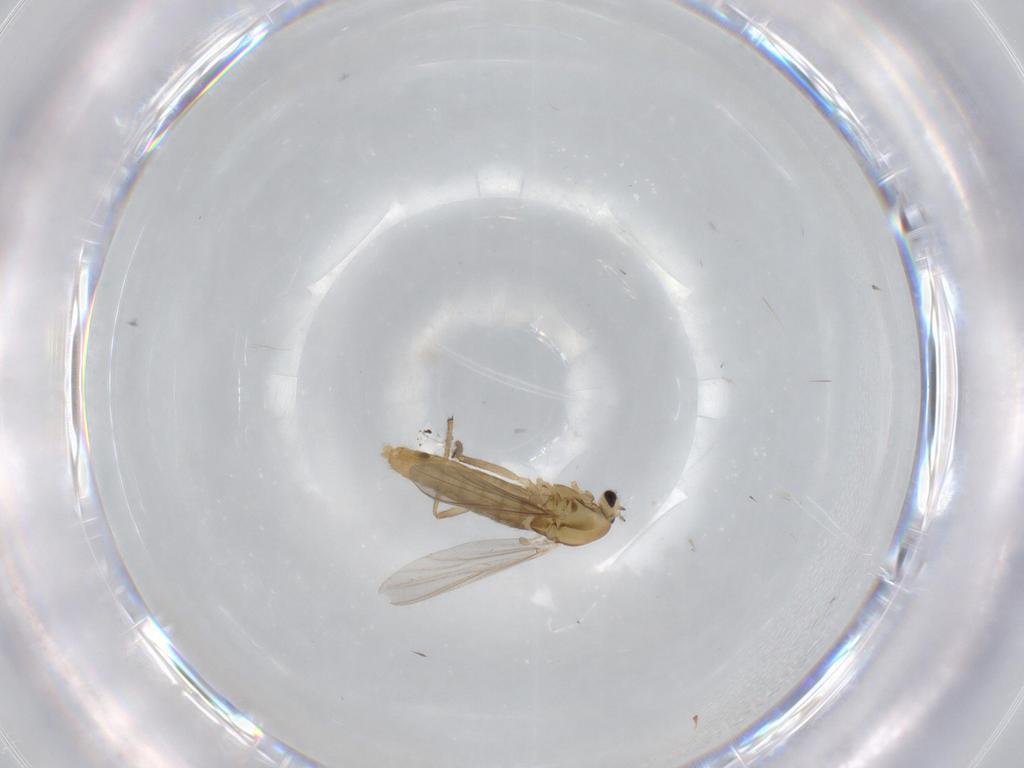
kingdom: Animalia
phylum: Arthropoda
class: Insecta
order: Diptera
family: Chironomidae
